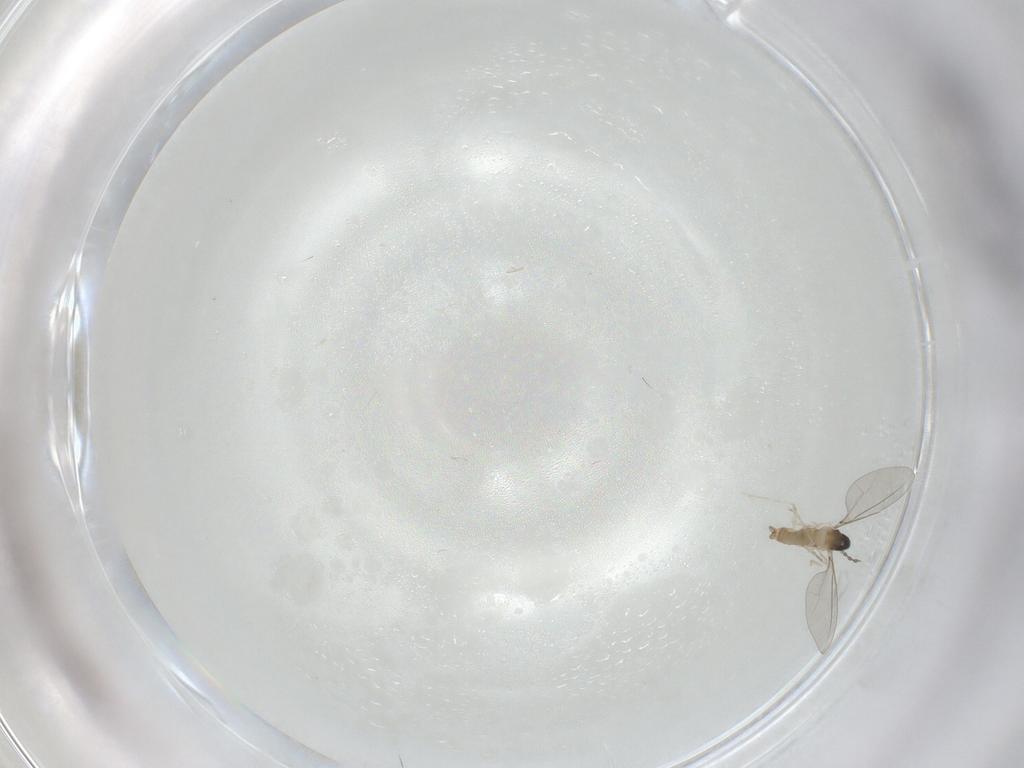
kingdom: Animalia
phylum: Arthropoda
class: Insecta
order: Diptera
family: Cecidomyiidae
